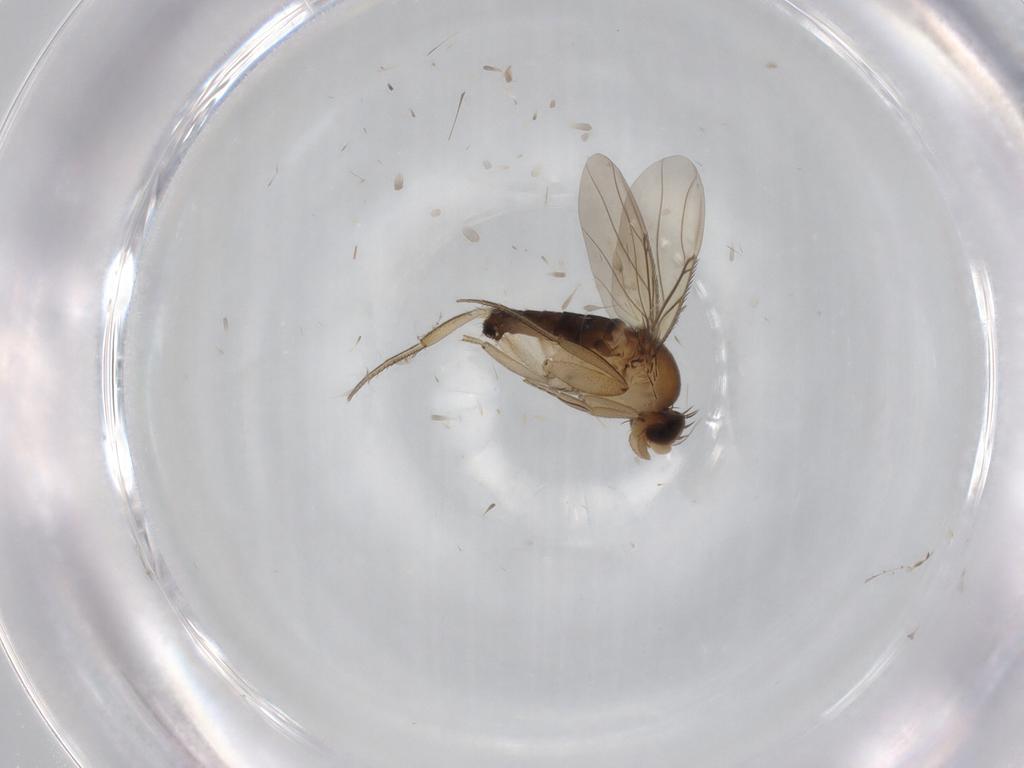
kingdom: Animalia
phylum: Arthropoda
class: Insecta
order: Diptera
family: Phoridae
